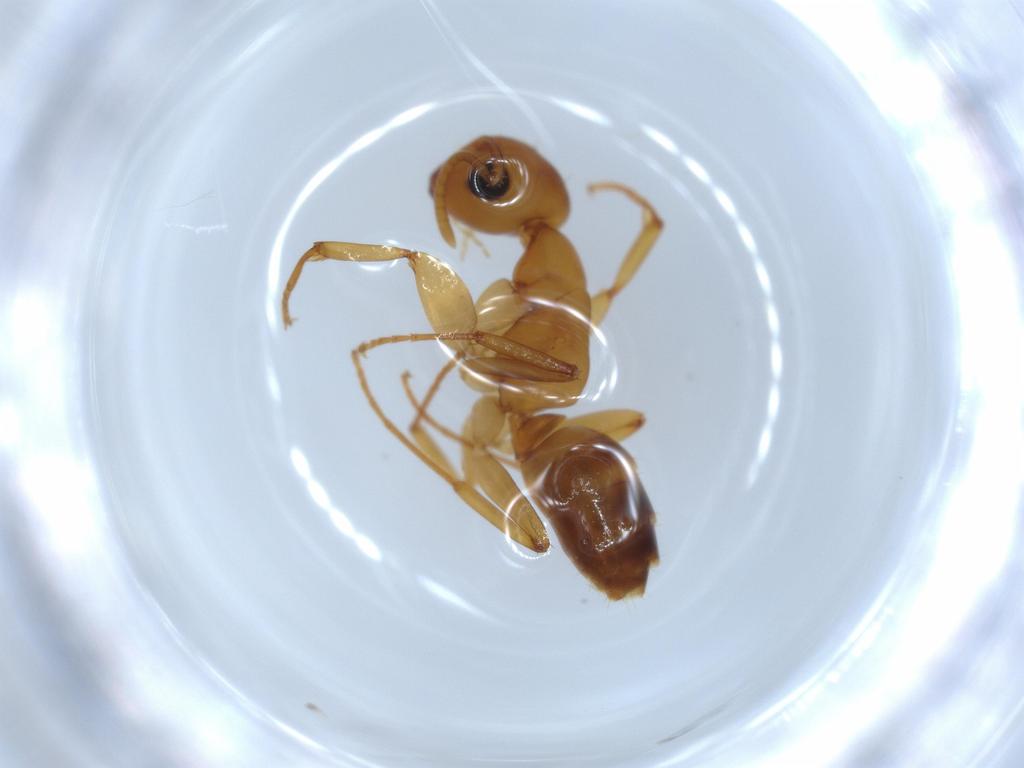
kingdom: Animalia
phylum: Arthropoda
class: Insecta
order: Hymenoptera
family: Formicidae
